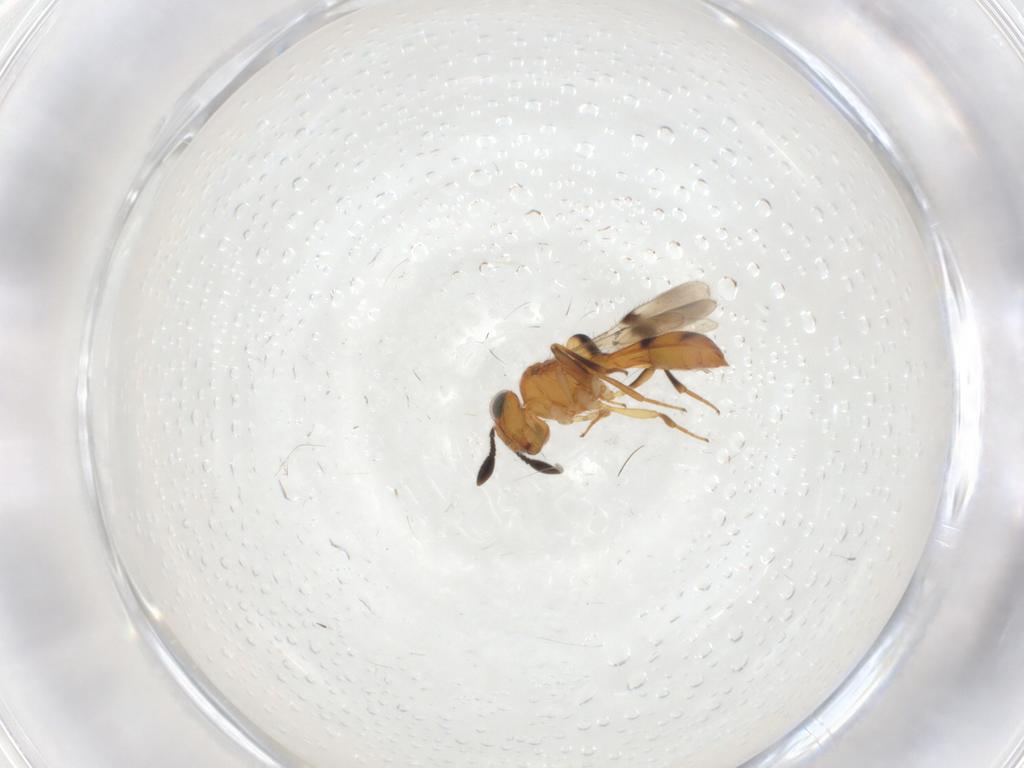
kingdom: Animalia
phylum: Arthropoda
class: Insecta
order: Hymenoptera
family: Scelionidae
